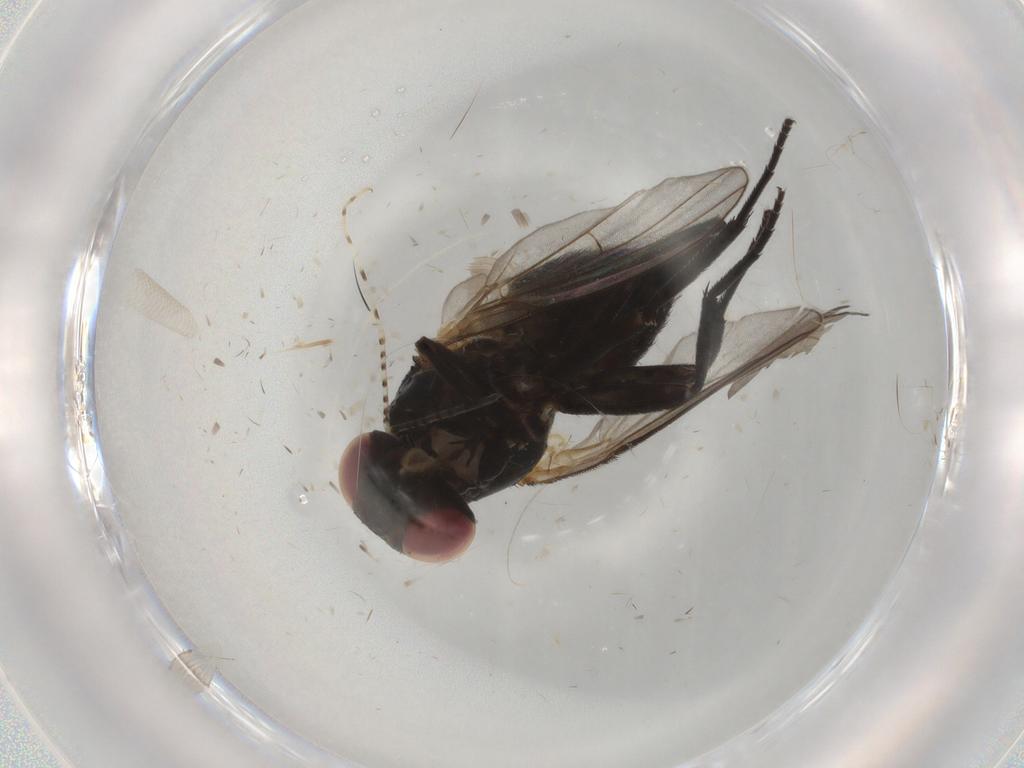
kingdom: Animalia
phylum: Arthropoda
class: Insecta
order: Diptera
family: Agromyzidae
